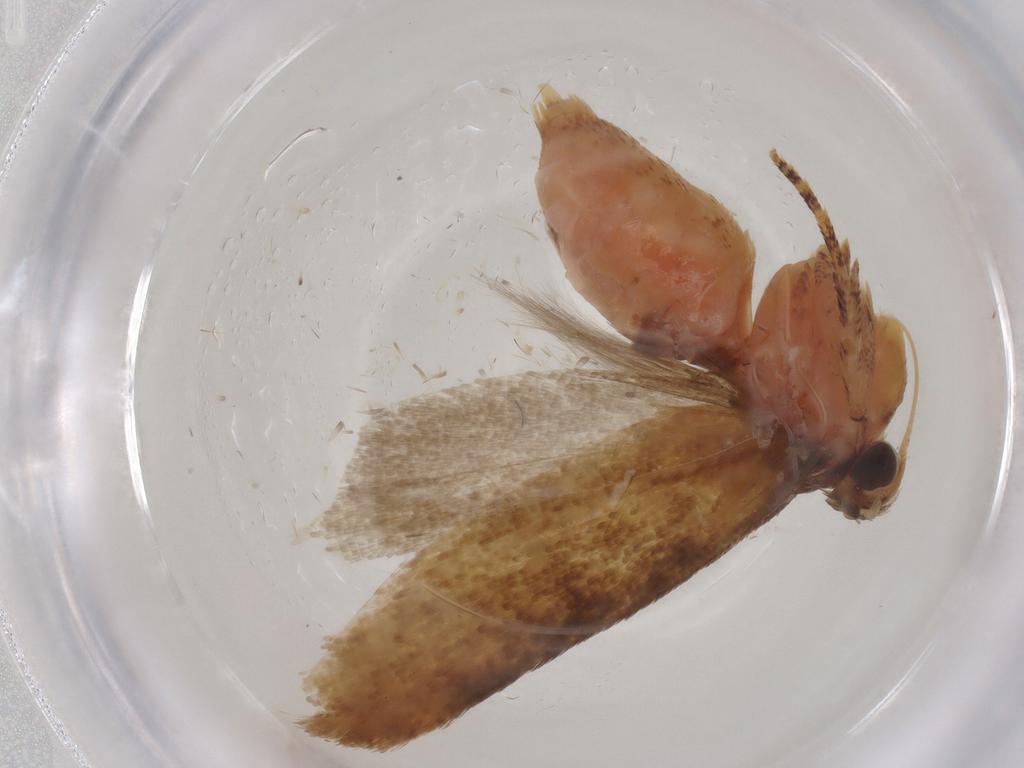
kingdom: Animalia
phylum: Arthropoda
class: Insecta
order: Lepidoptera
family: Gelechiidae
